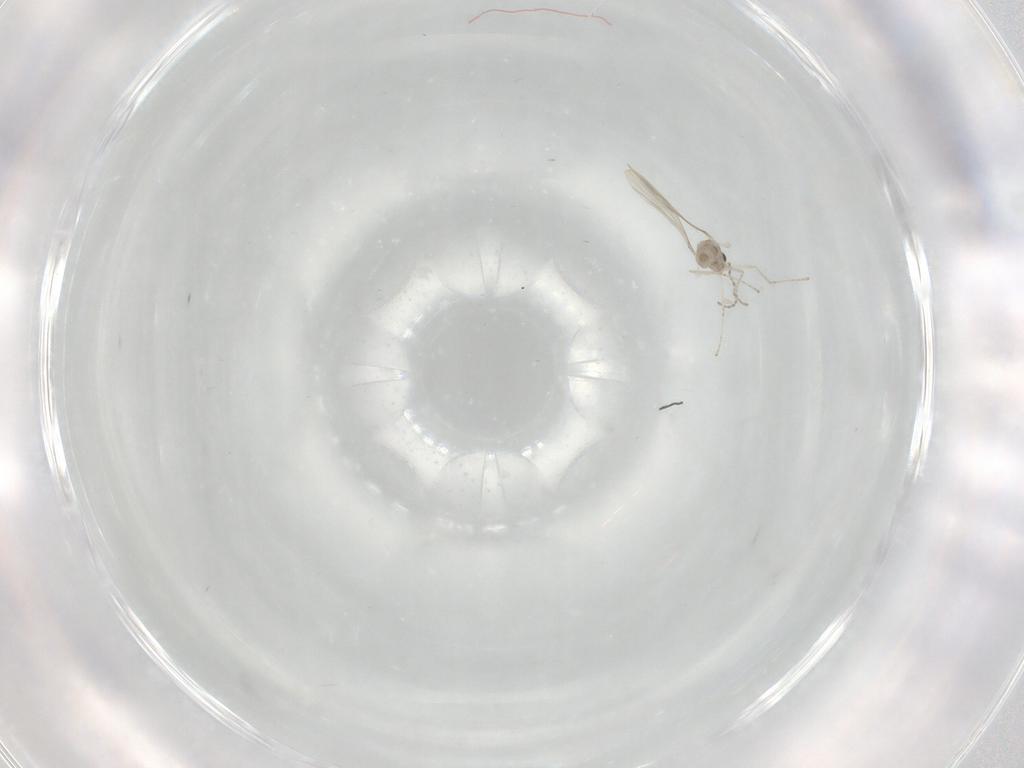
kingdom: Animalia
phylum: Arthropoda
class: Insecta
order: Diptera
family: Cecidomyiidae
